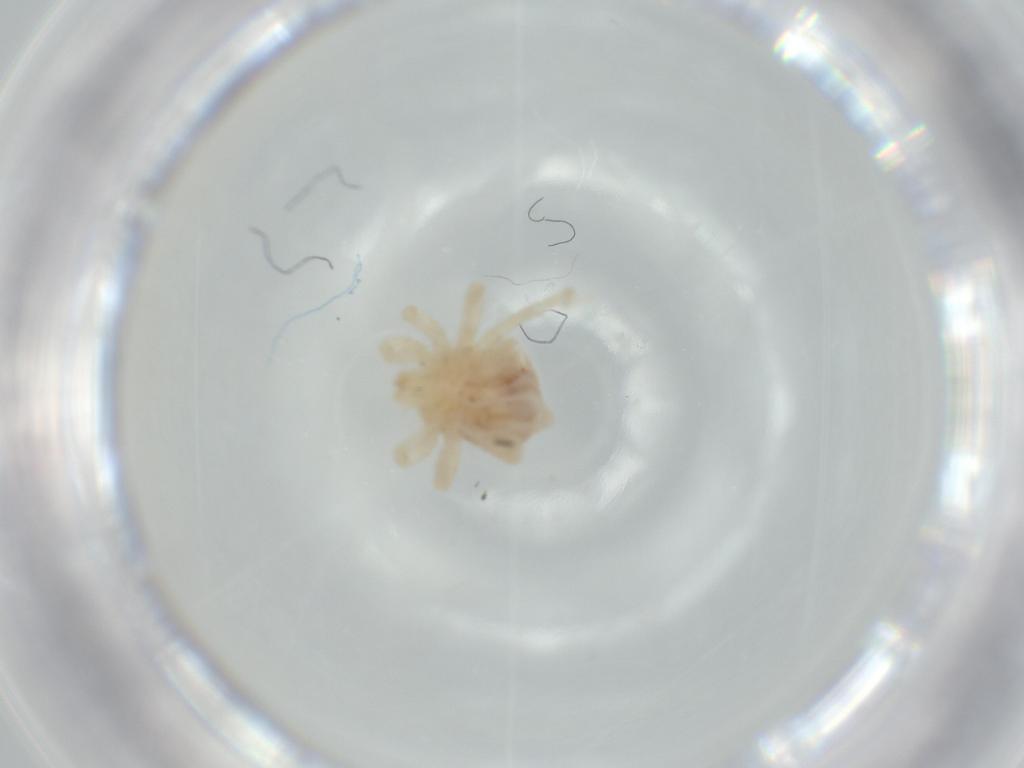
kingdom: Animalia
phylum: Arthropoda
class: Arachnida
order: Trombidiformes
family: Anystidae
